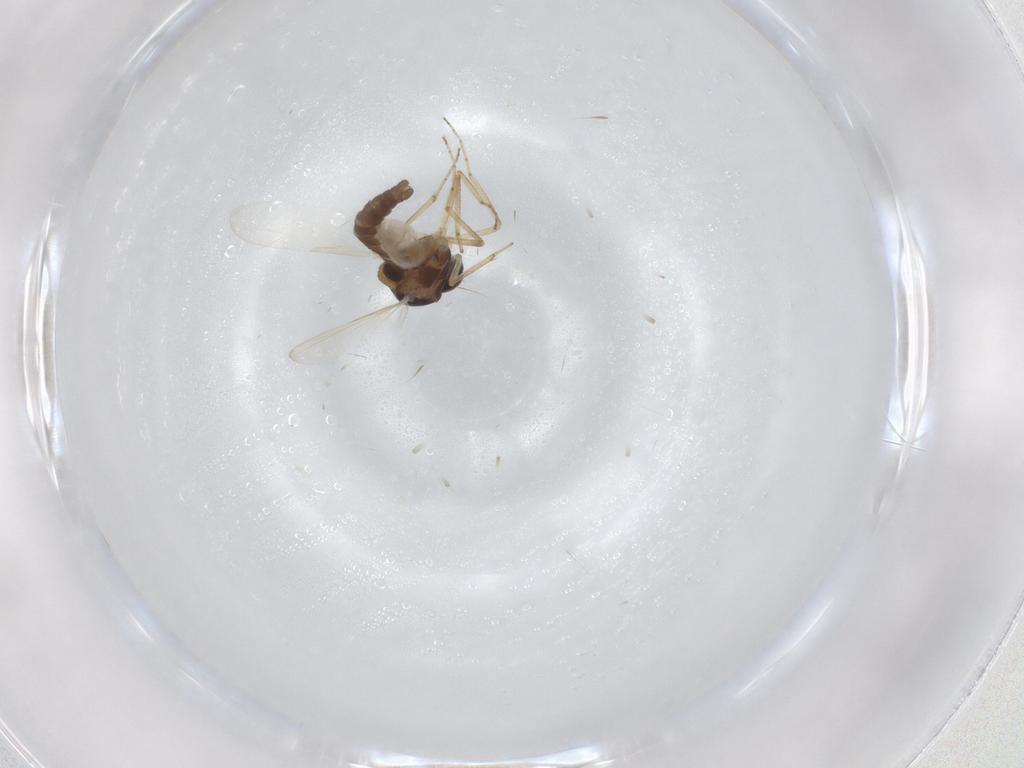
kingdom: Animalia
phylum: Arthropoda
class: Insecta
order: Diptera
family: Ceratopogonidae
